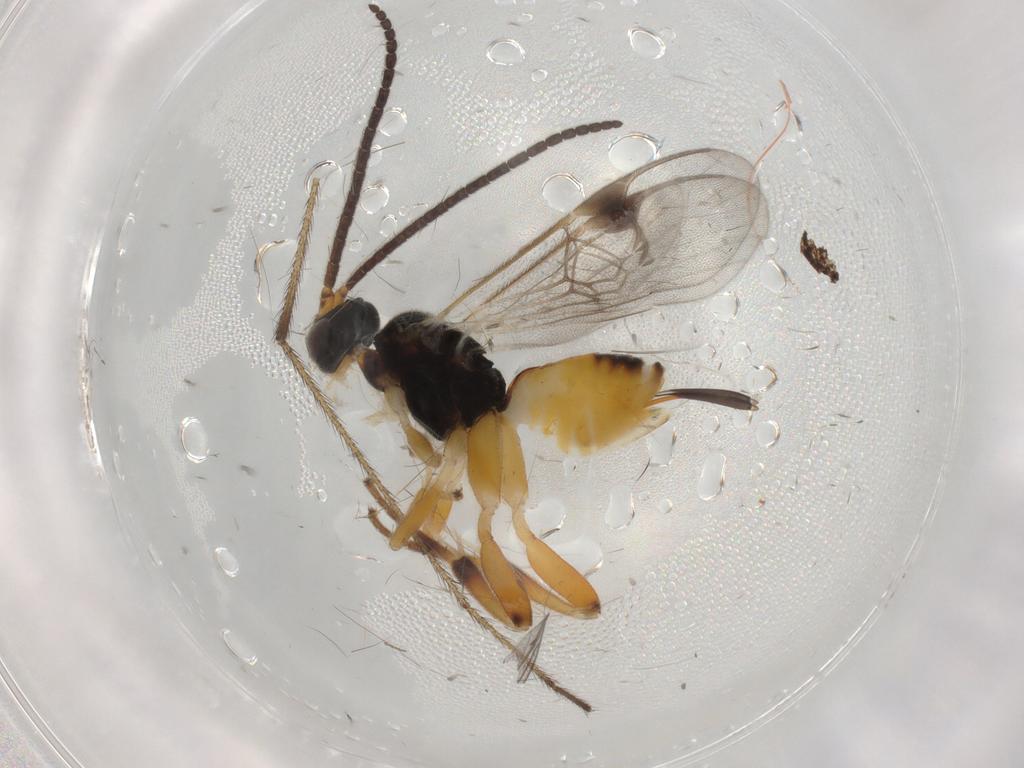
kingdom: Animalia
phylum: Arthropoda
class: Insecta
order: Hymenoptera
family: Braconidae
